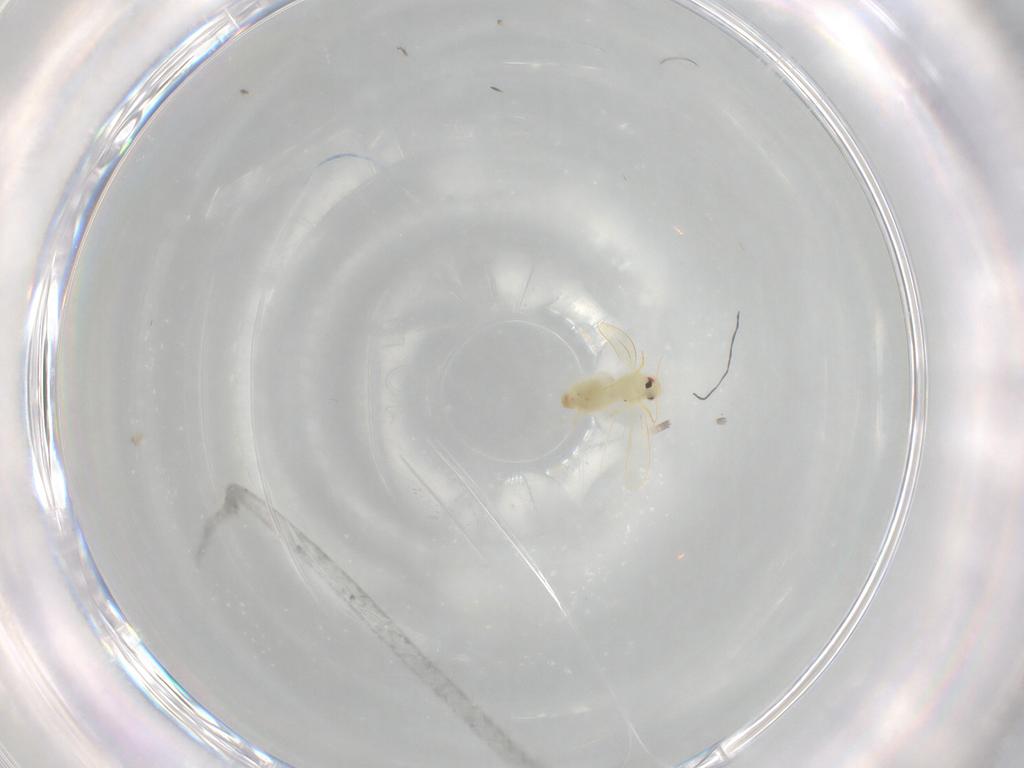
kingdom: Animalia
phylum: Arthropoda
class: Insecta
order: Hemiptera
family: Aleyrodidae
